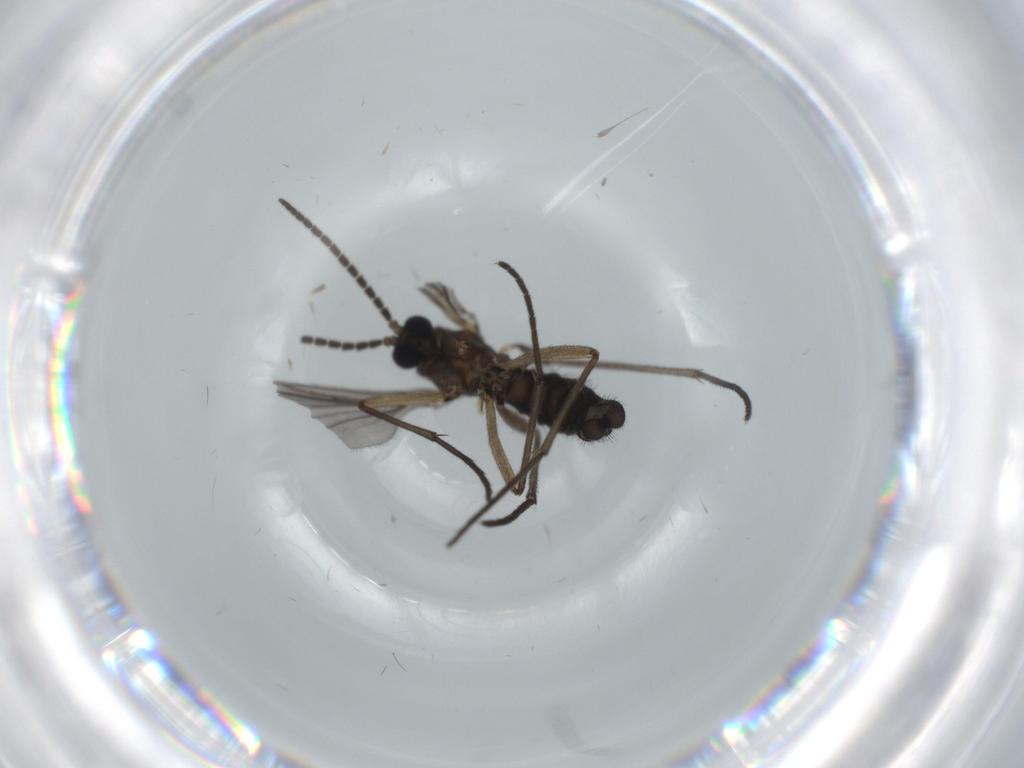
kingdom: Animalia
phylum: Arthropoda
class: Insecta
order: Diptera
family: Sciaridae
